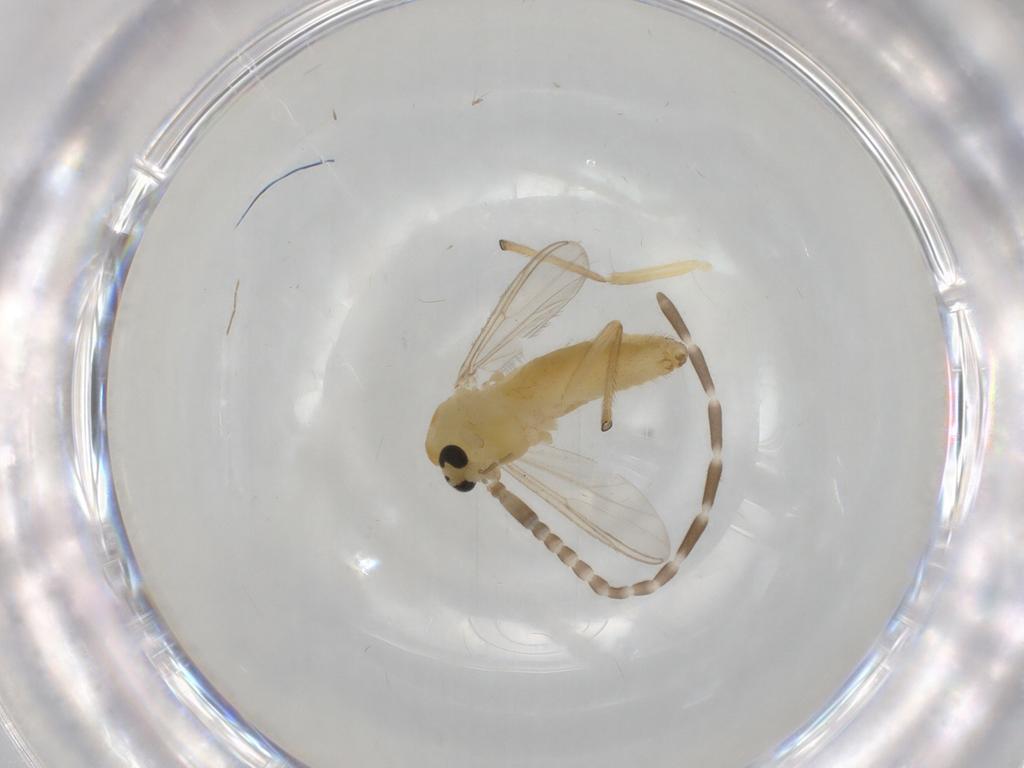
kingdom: Animalia
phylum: Arthropoda
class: Insecta
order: Diptera
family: Chironomidae
